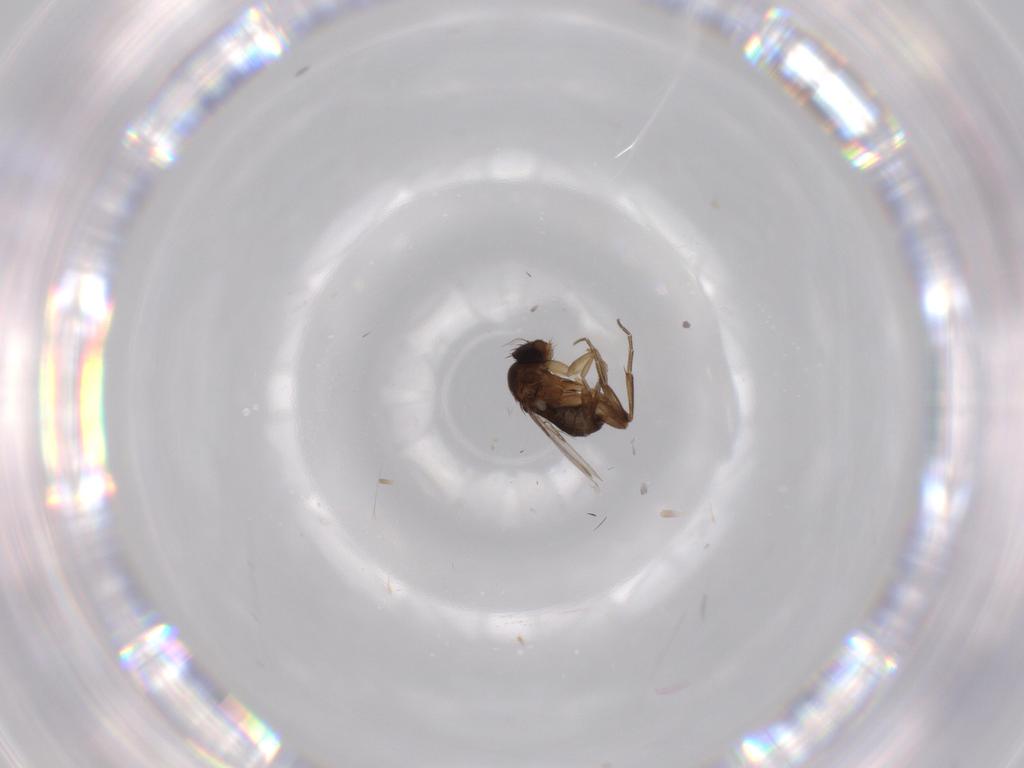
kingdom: Animalia
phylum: Arthropoda
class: Insecta
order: Diptera
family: Phoridae
